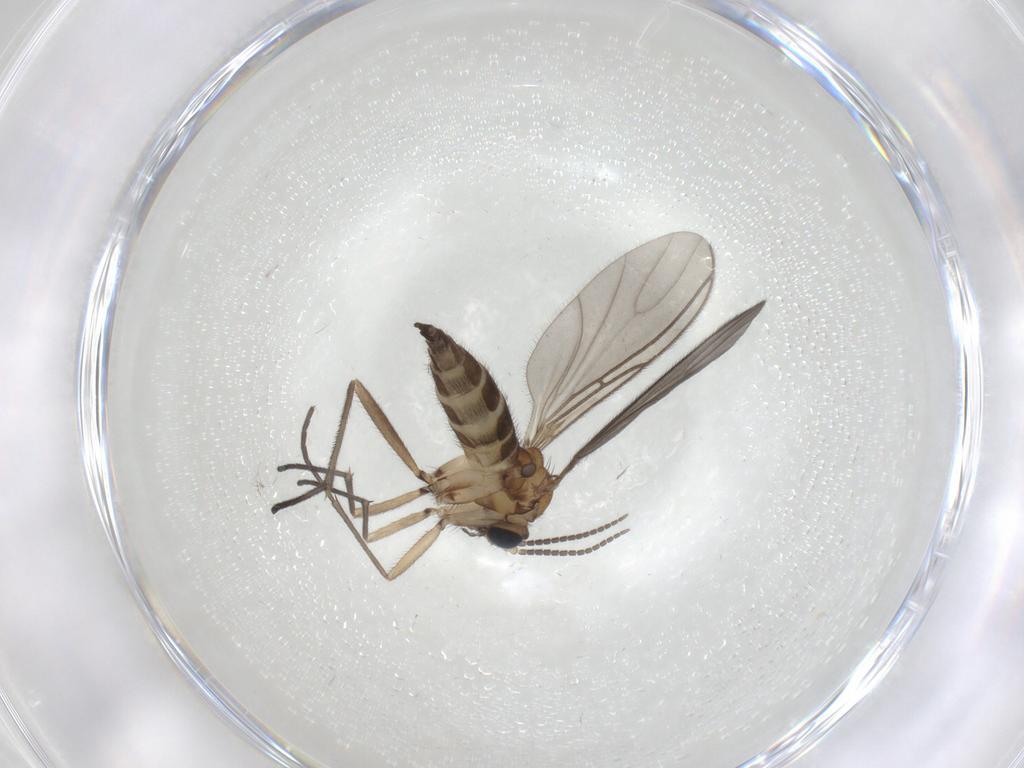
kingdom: Animalia
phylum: Arthropoda
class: Insecta
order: Diptera
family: Sciaridae
